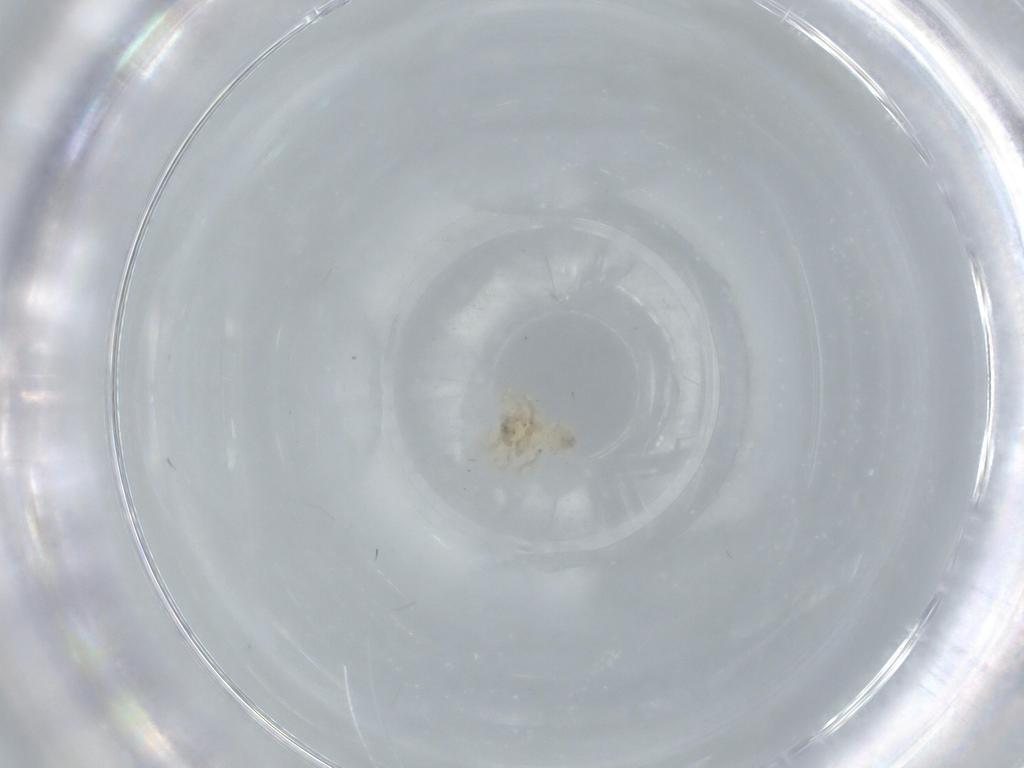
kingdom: Animalia
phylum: Arthropoda
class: Arachnida
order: Araneae
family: Oonopidae
